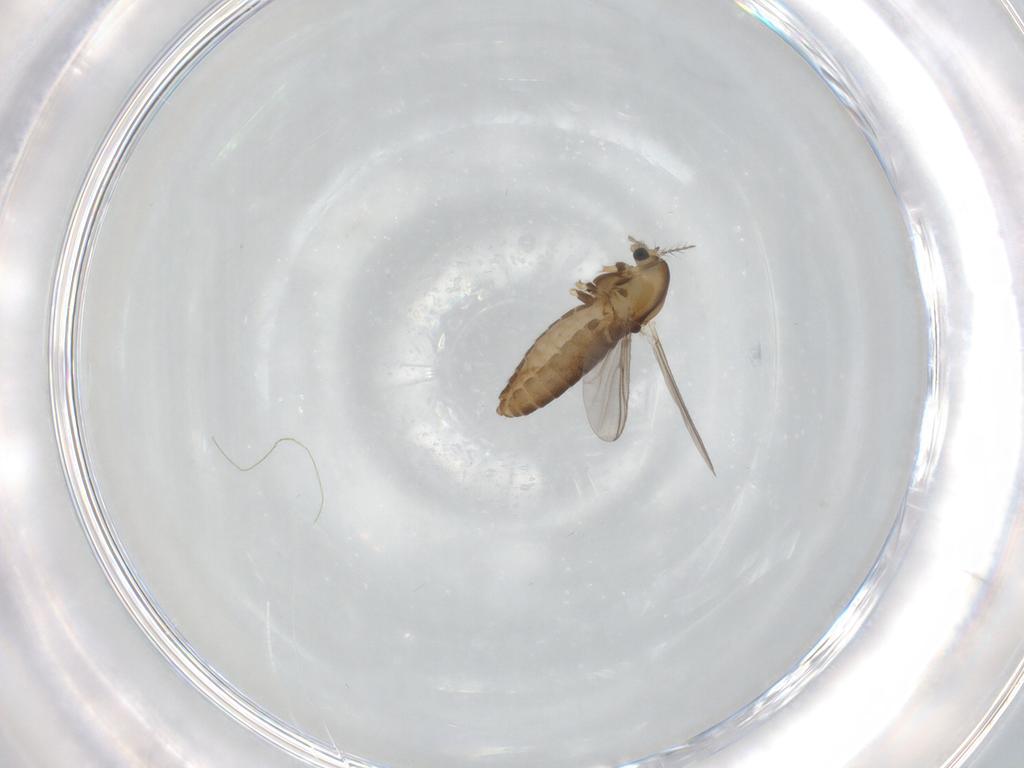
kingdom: Animalia
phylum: Arthropoda
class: Insecta
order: Diptera
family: Chironomidae
